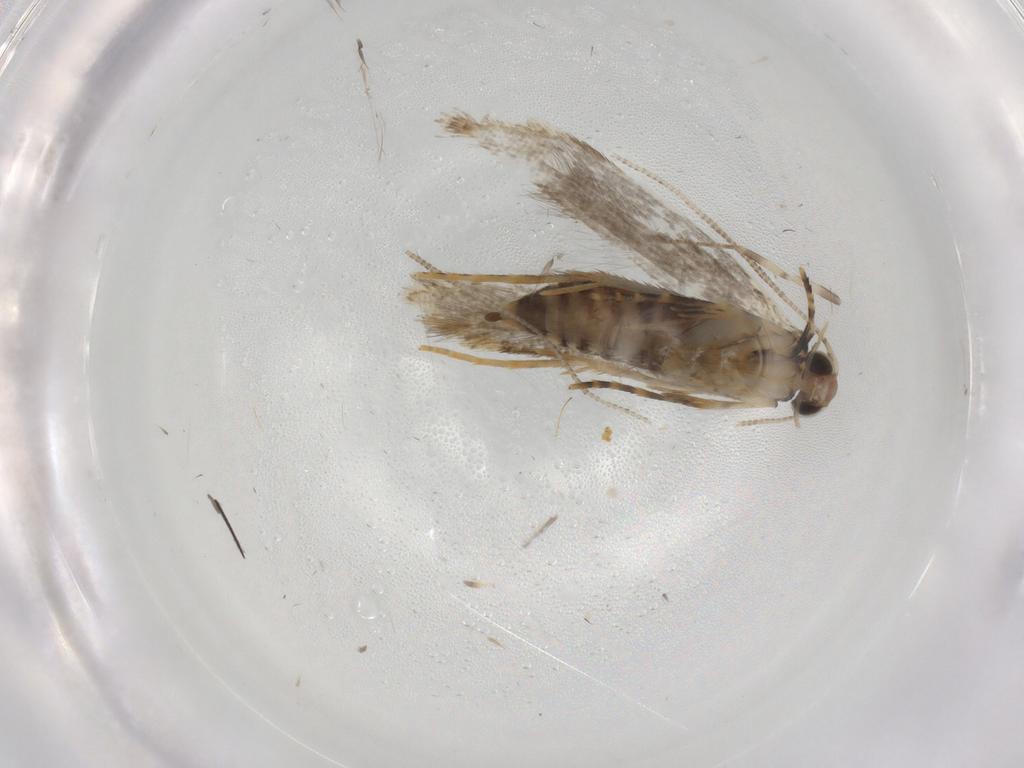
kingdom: Animalia
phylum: Arthropoda
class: Insecta
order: Lepidoptera
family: Tineidae
